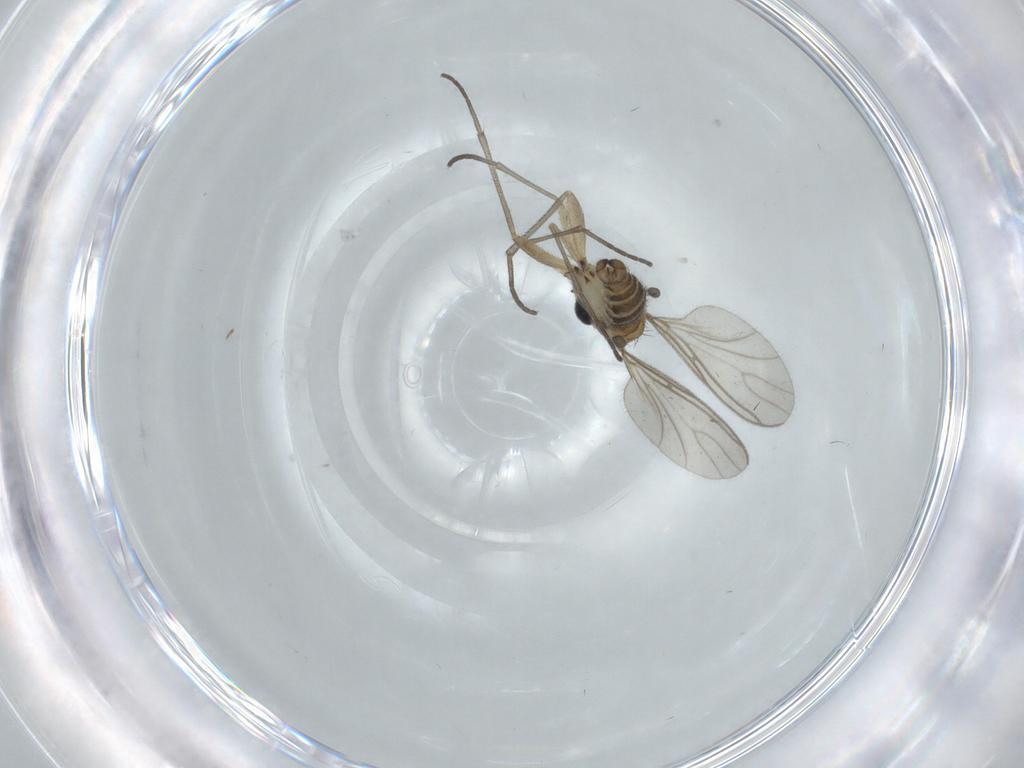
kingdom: Animalia
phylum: Arthropoda
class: Insecta
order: Diptera
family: Sciaridae
